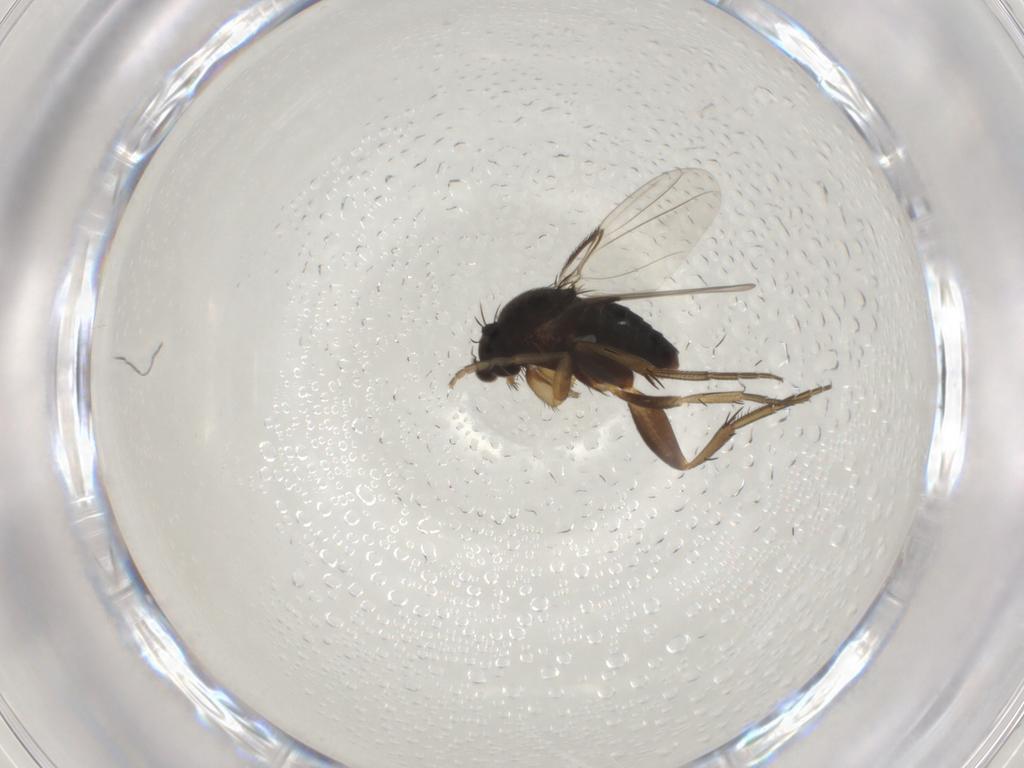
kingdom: Animalia
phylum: Arthropoda
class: Insecta
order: Diptera
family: Phoridae
